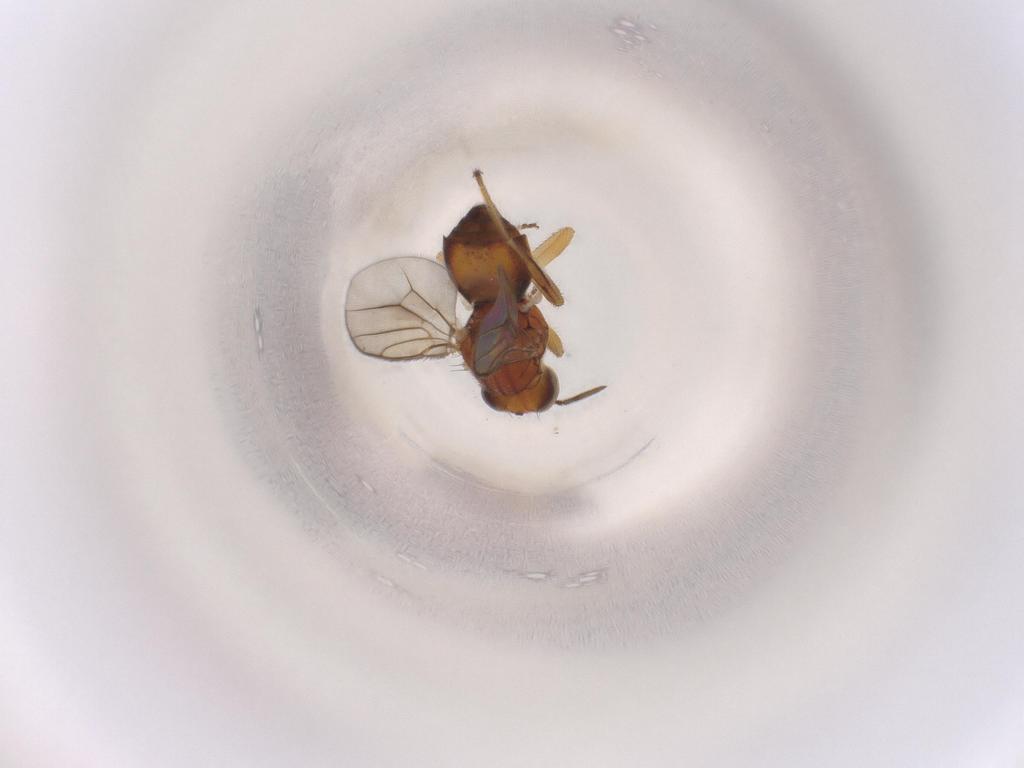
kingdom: Animalia
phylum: Arthropoda
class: Insecta
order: Diptera
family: Chloropidae
